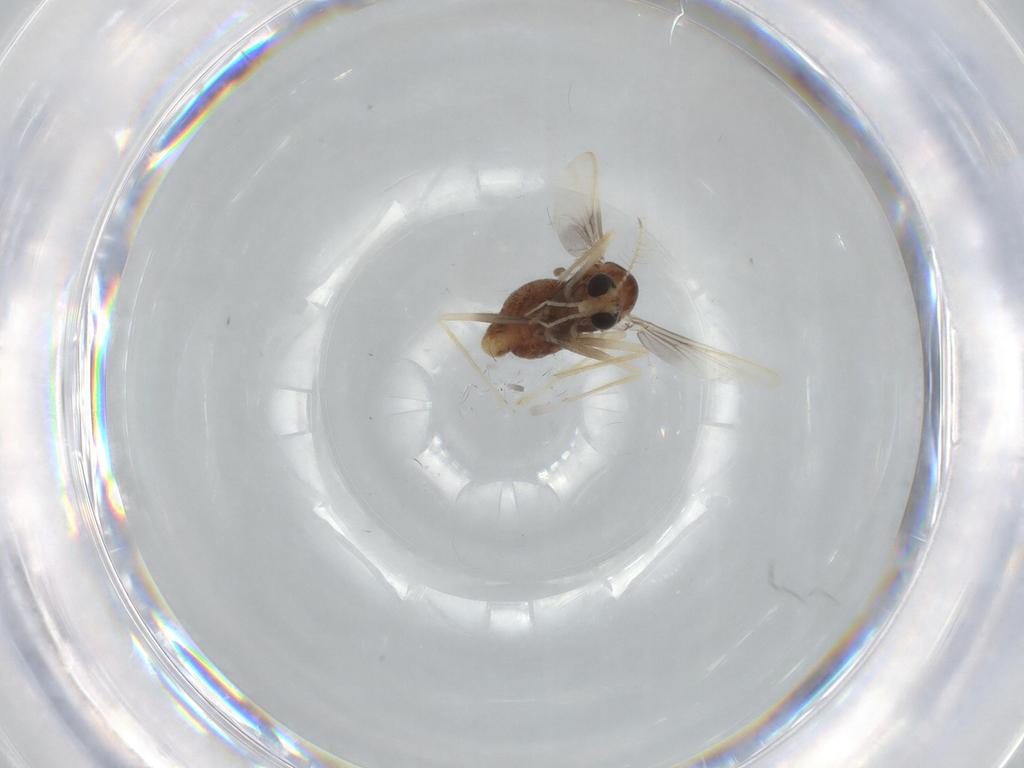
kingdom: Animalia
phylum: Arthropoda
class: Insecta
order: Diptera
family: Chironomidae
